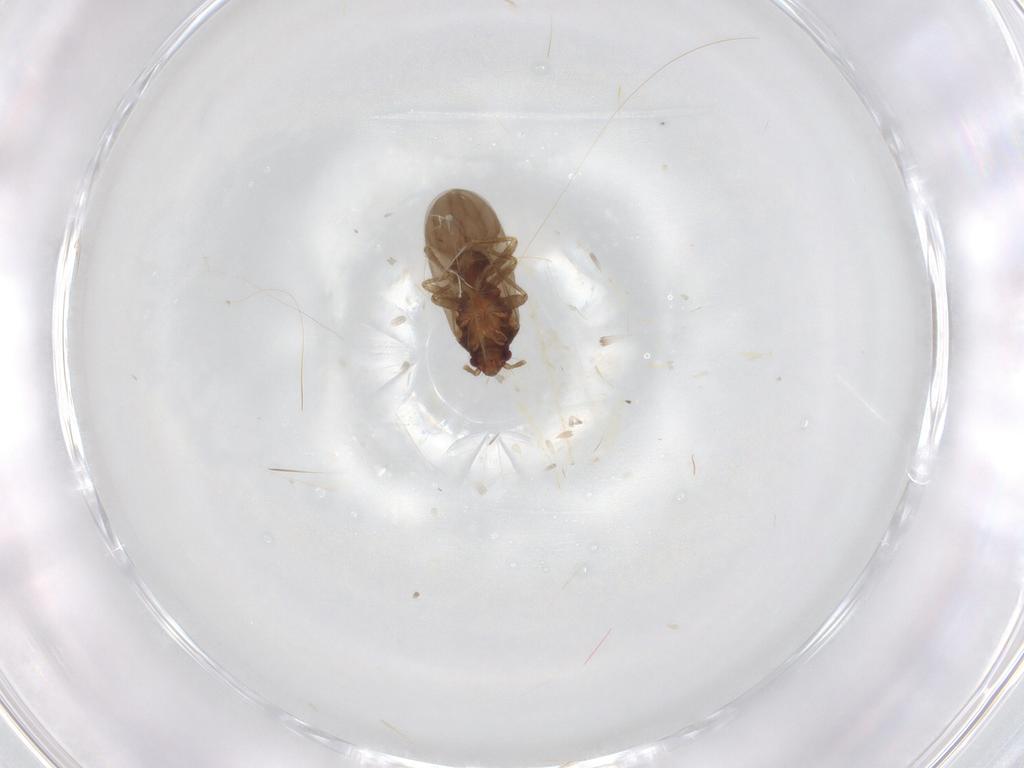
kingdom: Animalia
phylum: Arthropoda
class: Insecta
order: Hemiptera
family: Ceratocombidae
